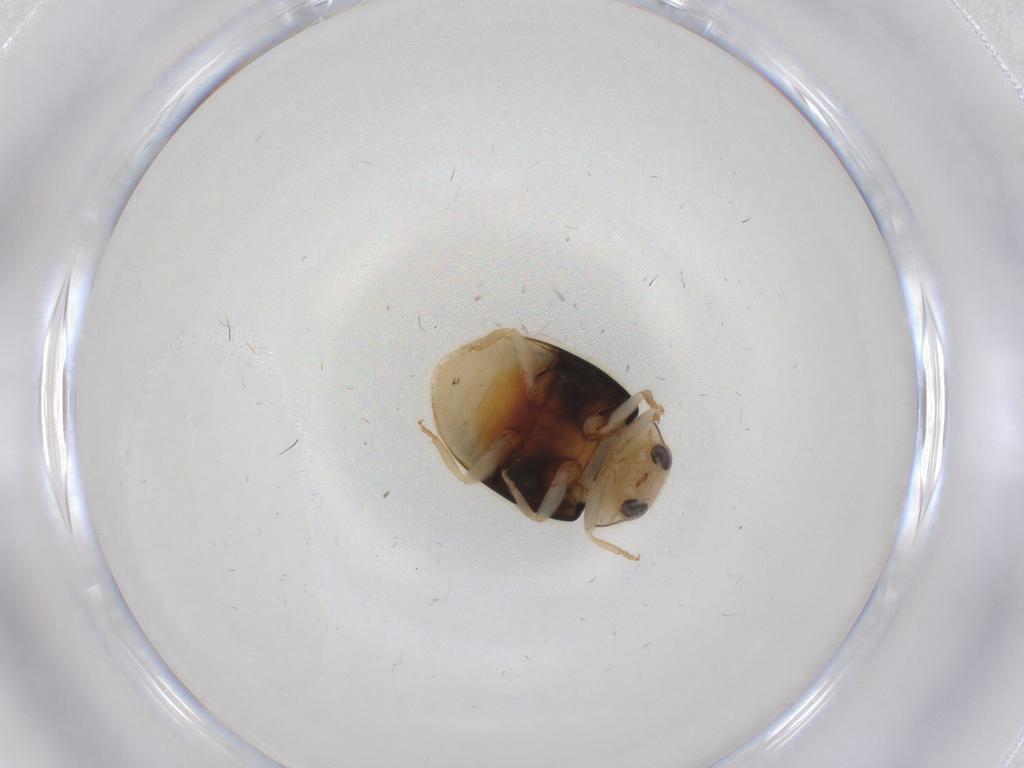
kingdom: Animalia
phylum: Arthropoda
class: Insecta
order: Coleoptera
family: Coccinellidae
